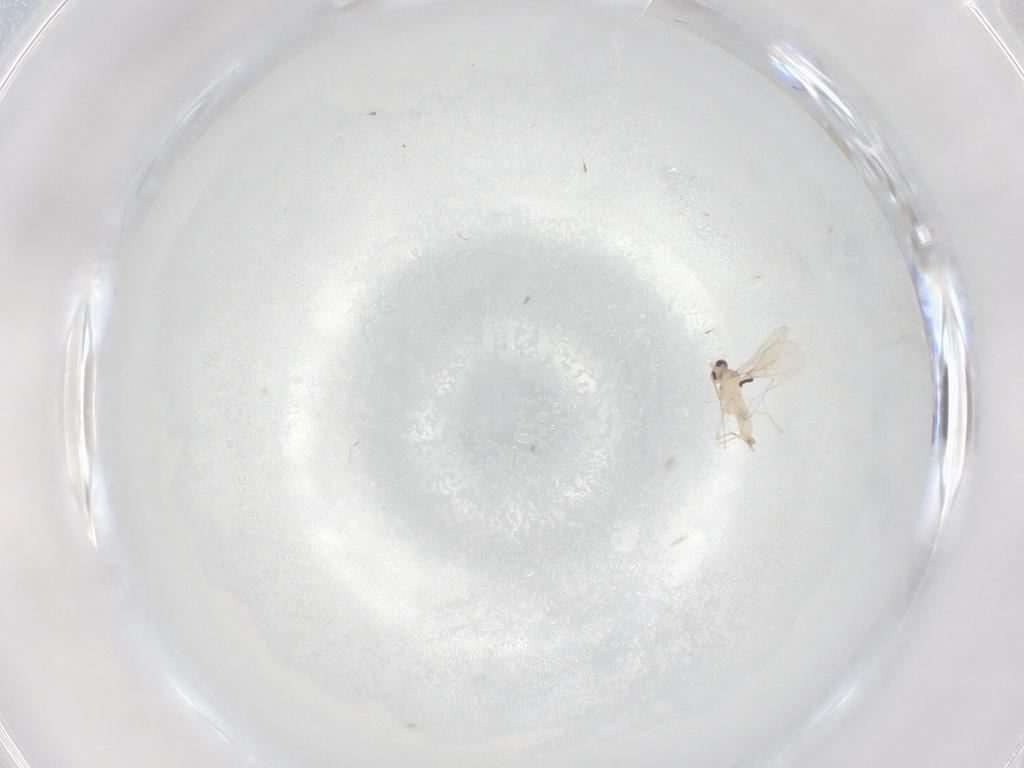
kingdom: Animalia
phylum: Arthropoda
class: Insecta
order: Diptera
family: Cecidomyiidae
